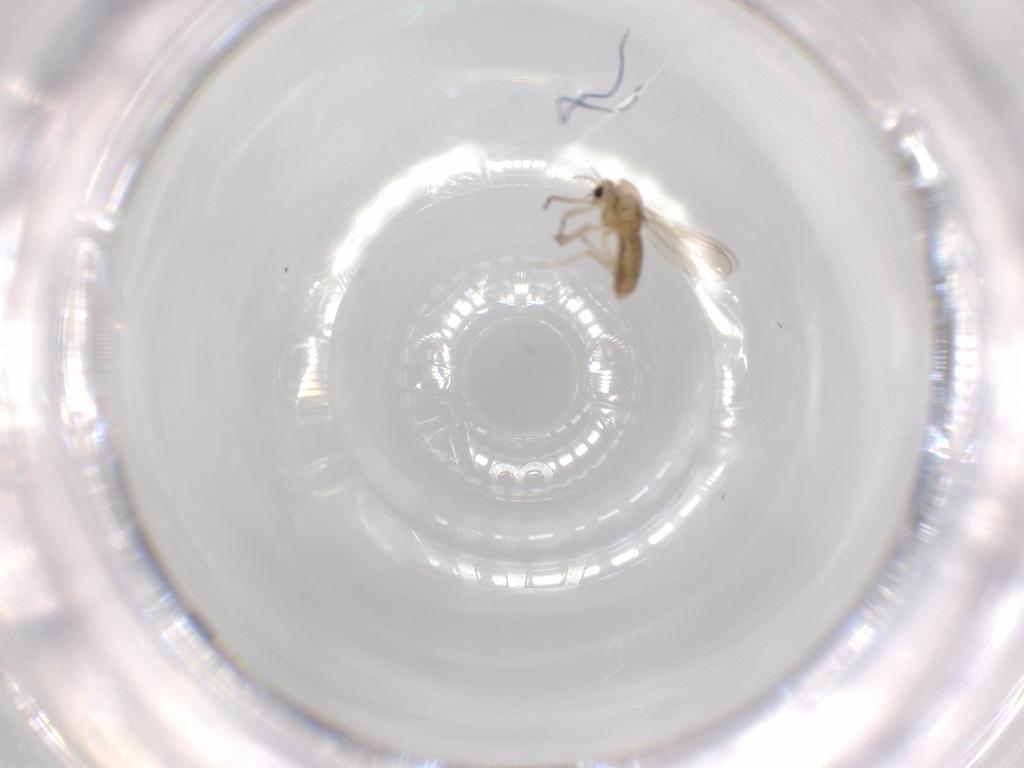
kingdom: Animalia
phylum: Arthropoda
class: Insecta
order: Diptera
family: Chironomidae
